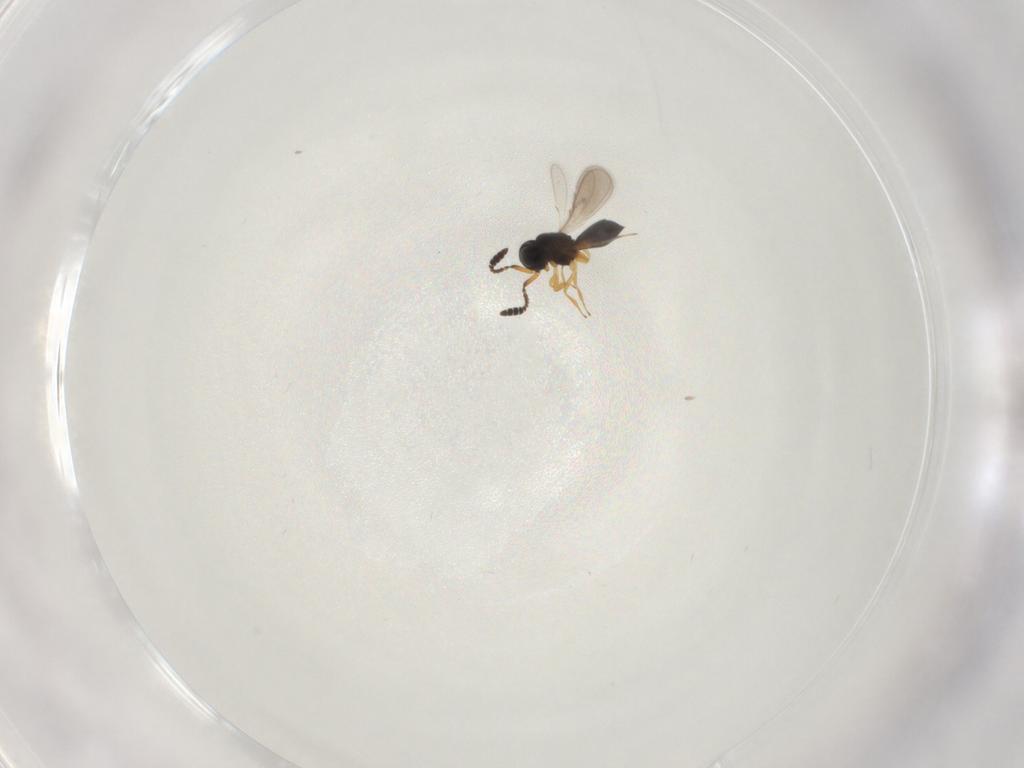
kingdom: Animalia
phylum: Arthropoda
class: Insecta
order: Hymenoptera
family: Scelionidae
